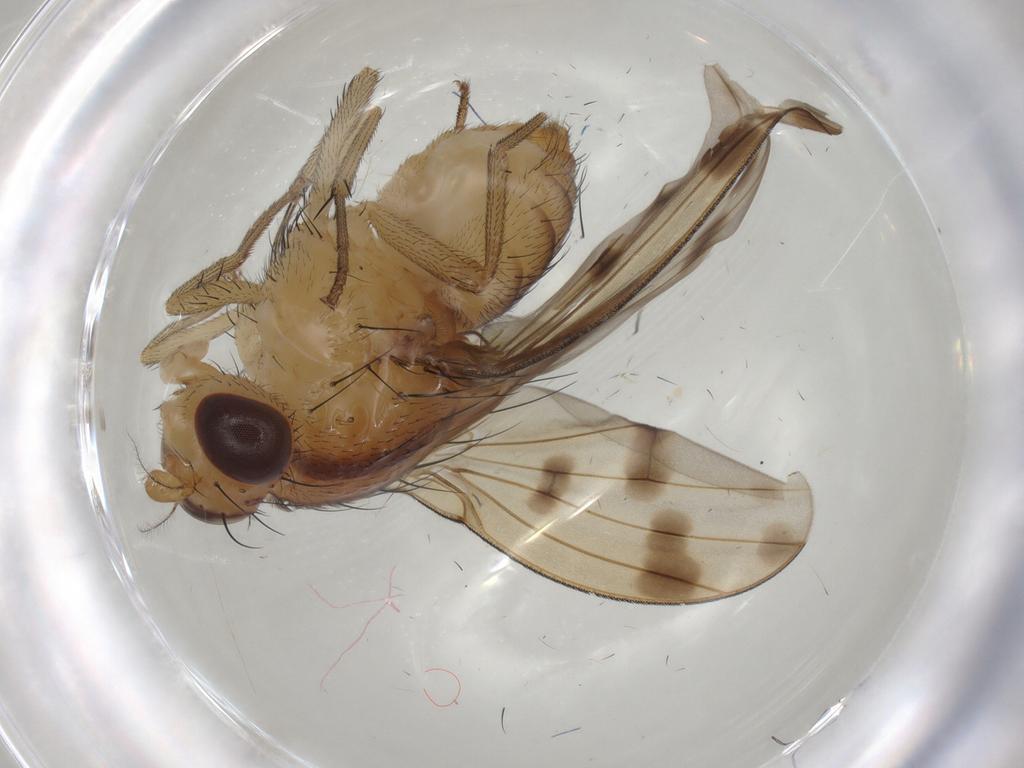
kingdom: Animalia
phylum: Arthropoda
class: Insecta
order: Diptera
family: Lauxaniidae
